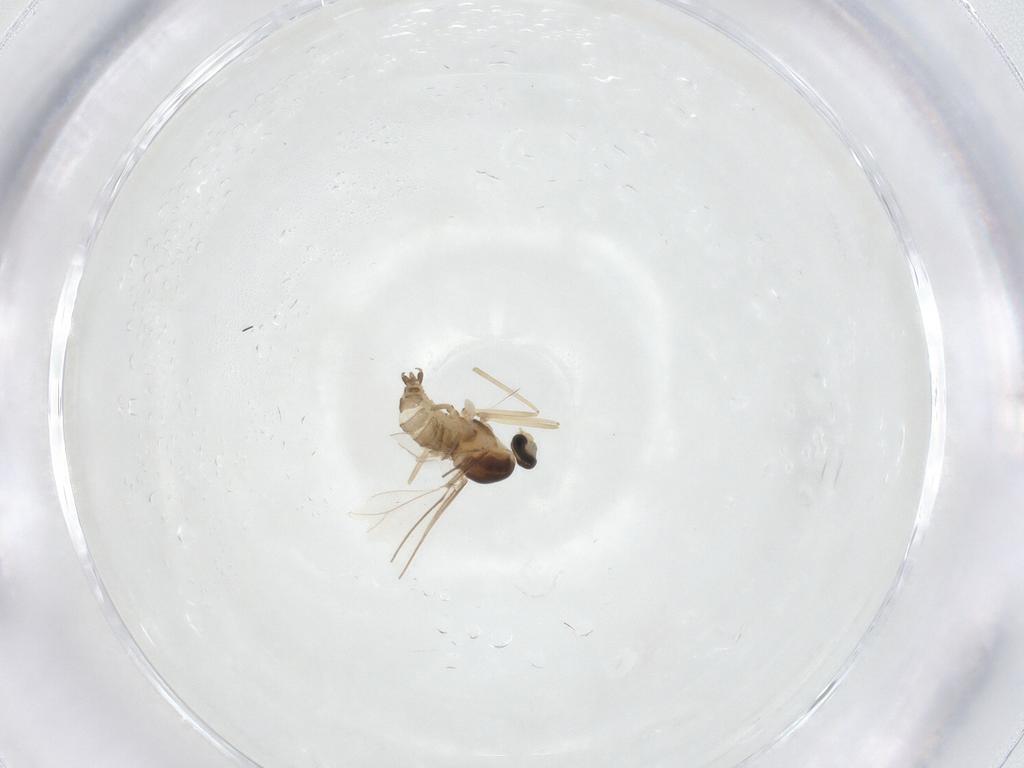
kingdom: Animalia
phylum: Arthropoda
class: Insecta
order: Diptera
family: Cecidomyiidae
